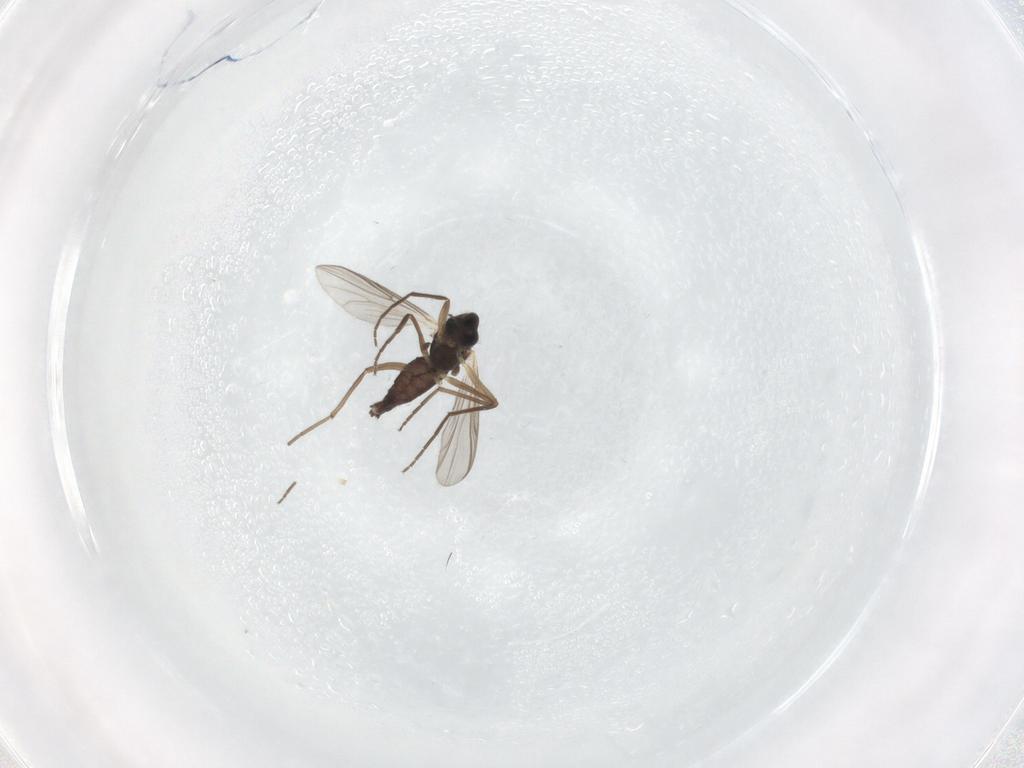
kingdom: Animalia
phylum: Arthropoda
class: Insecta
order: Diptera
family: Chironomidae
